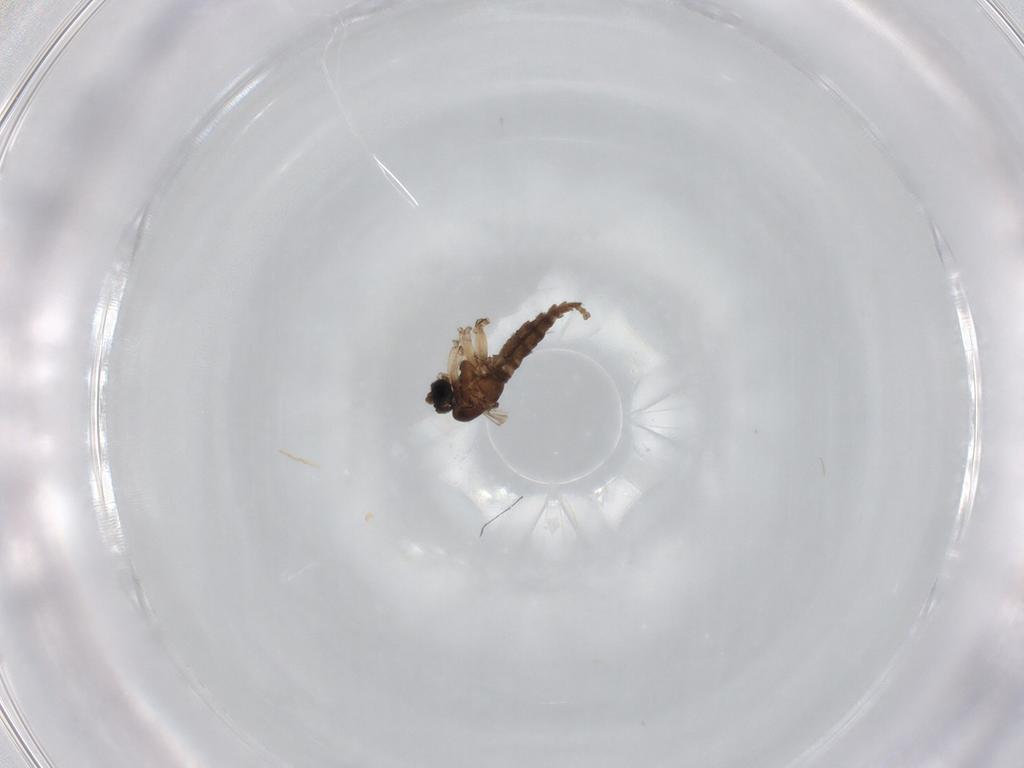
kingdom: Animalia
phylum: Arthropoda
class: Insecta
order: Diptera
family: Sciaridae
